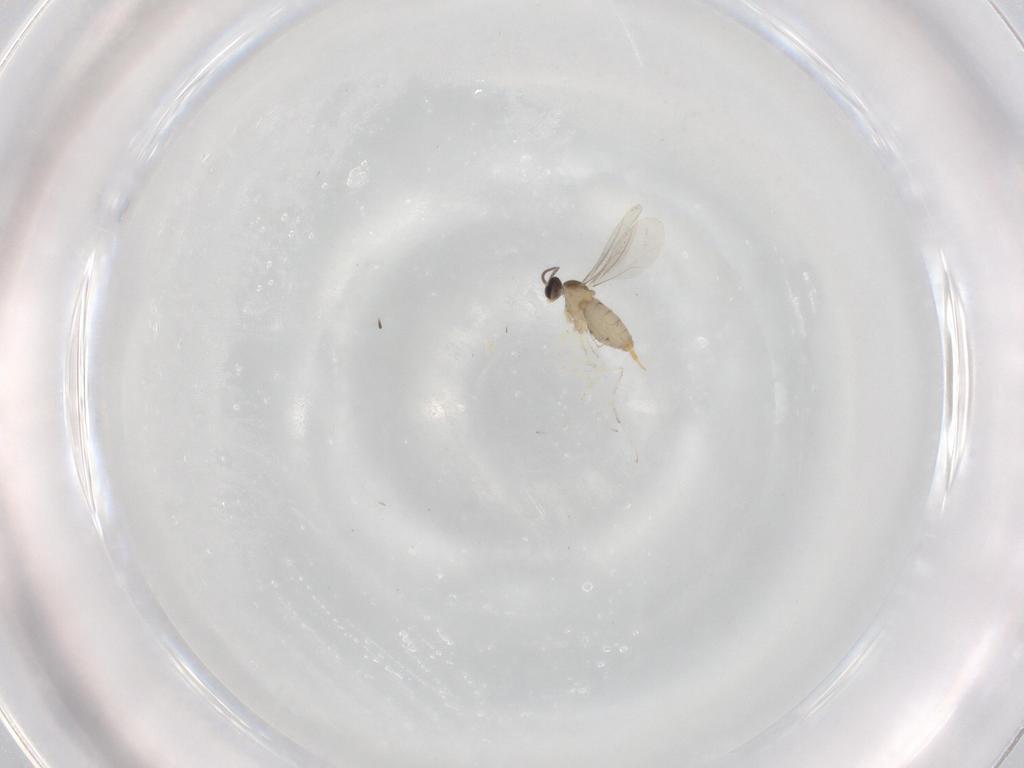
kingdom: Animalia
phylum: Arthropoda
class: Insecta
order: Diptera
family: Cecidomyiidae
